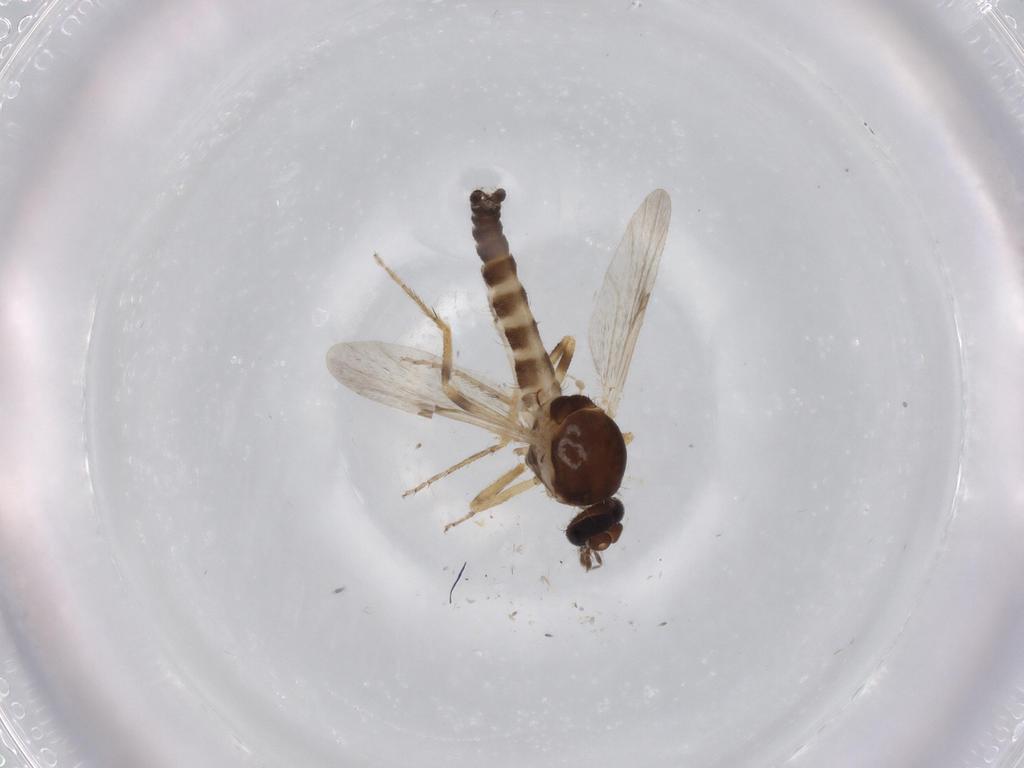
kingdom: Animalia
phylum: Arthropoda
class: Insecta
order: Diptera
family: Ceratopogonidae
